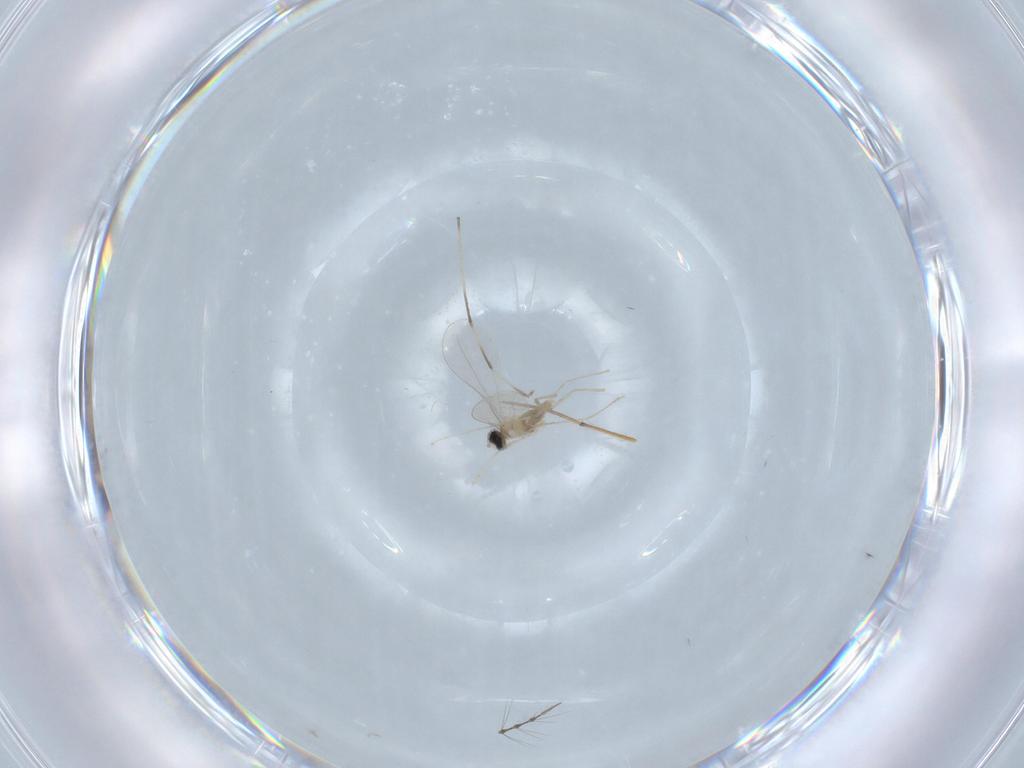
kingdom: Animalia
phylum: Arthropoda
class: Insecta
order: Diptera
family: Chironomidae
